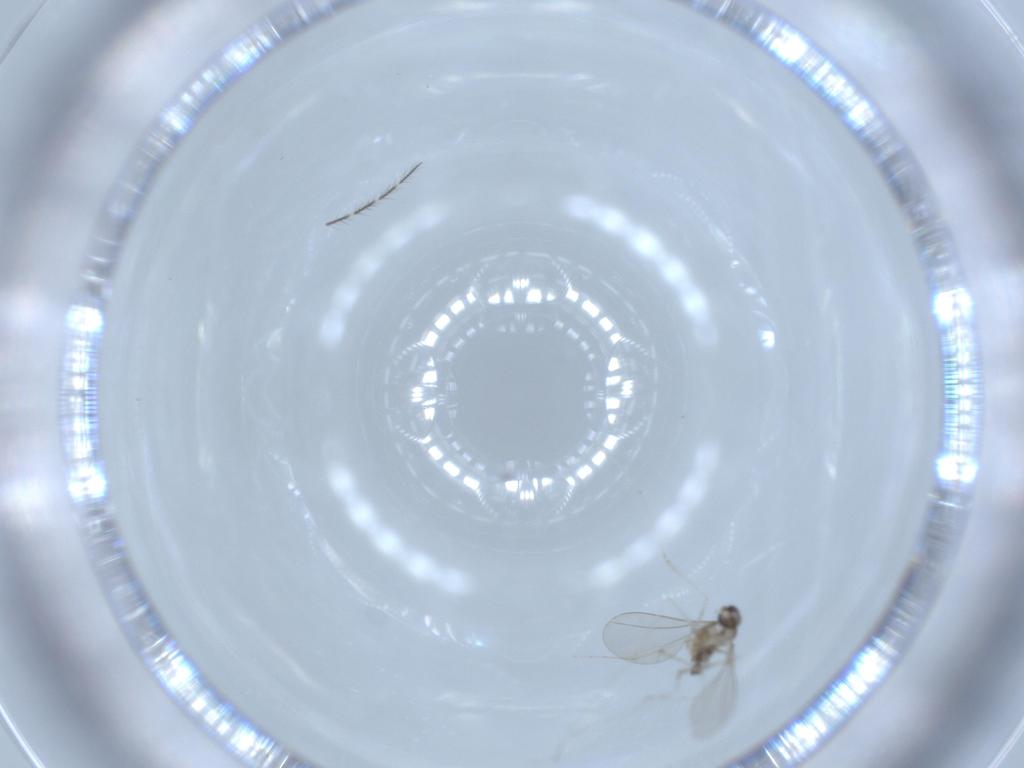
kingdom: Animalia
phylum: Arthropoda
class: Insecta
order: Diptera
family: Cecidomyiidae
